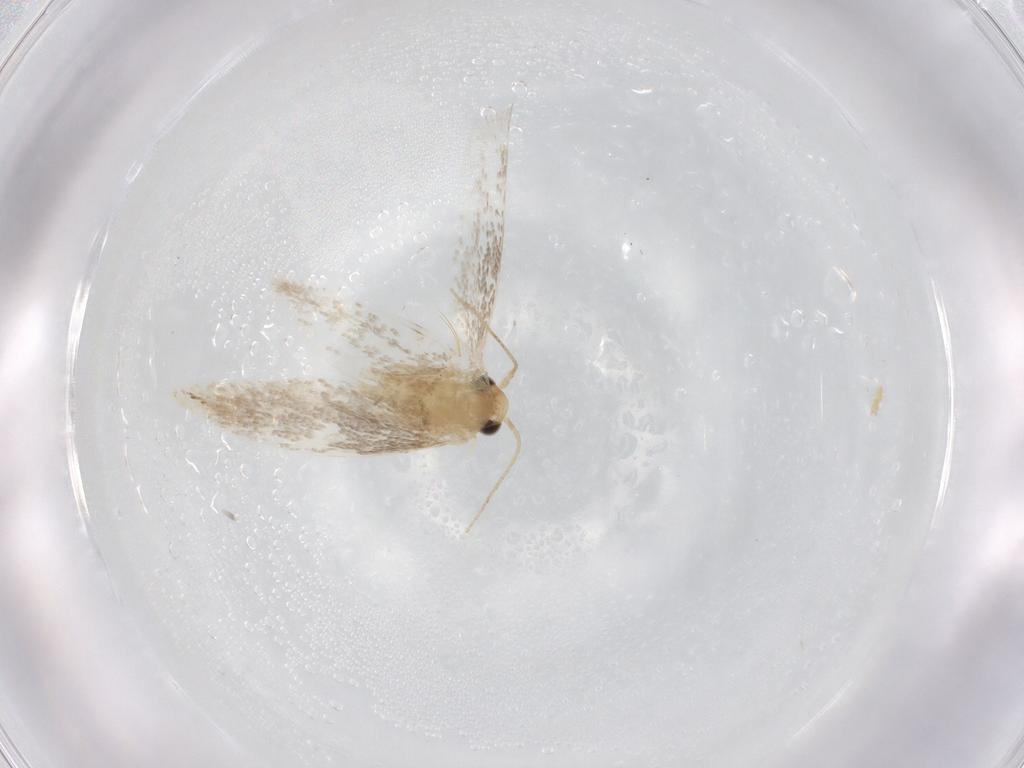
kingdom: Animalia
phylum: Arthropoda
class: Insecta
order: Lepidoptera
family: Dryadaulidae
